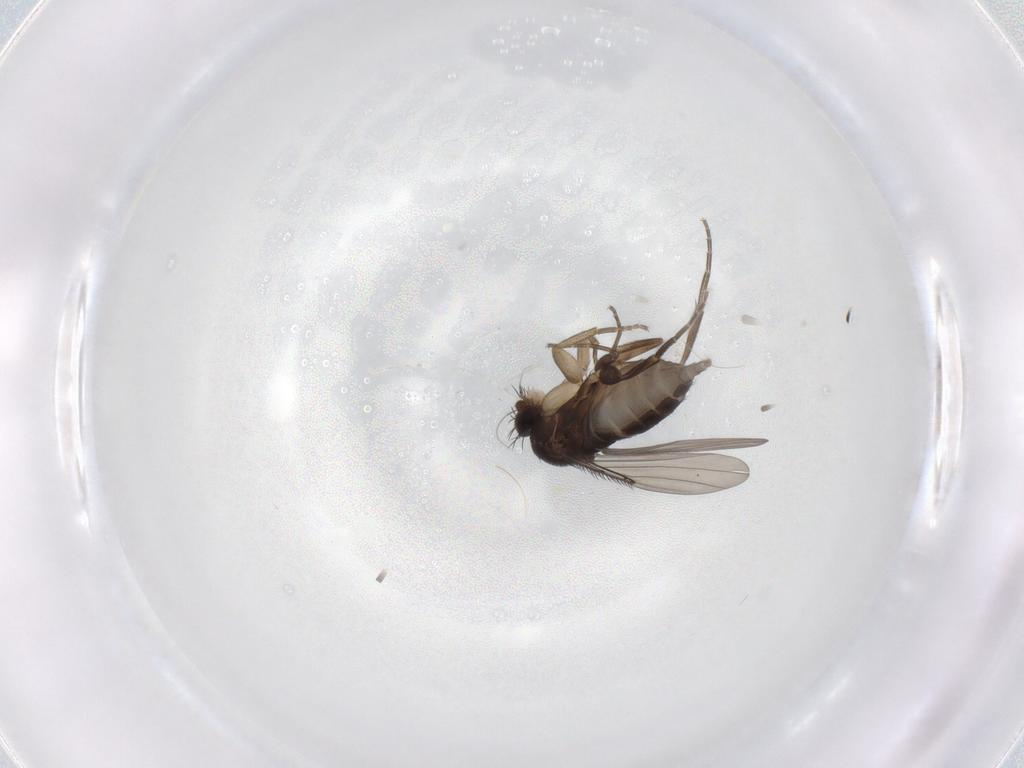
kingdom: Animalia
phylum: Arthropoda
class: Insecta
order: Diptera
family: Phoridae
